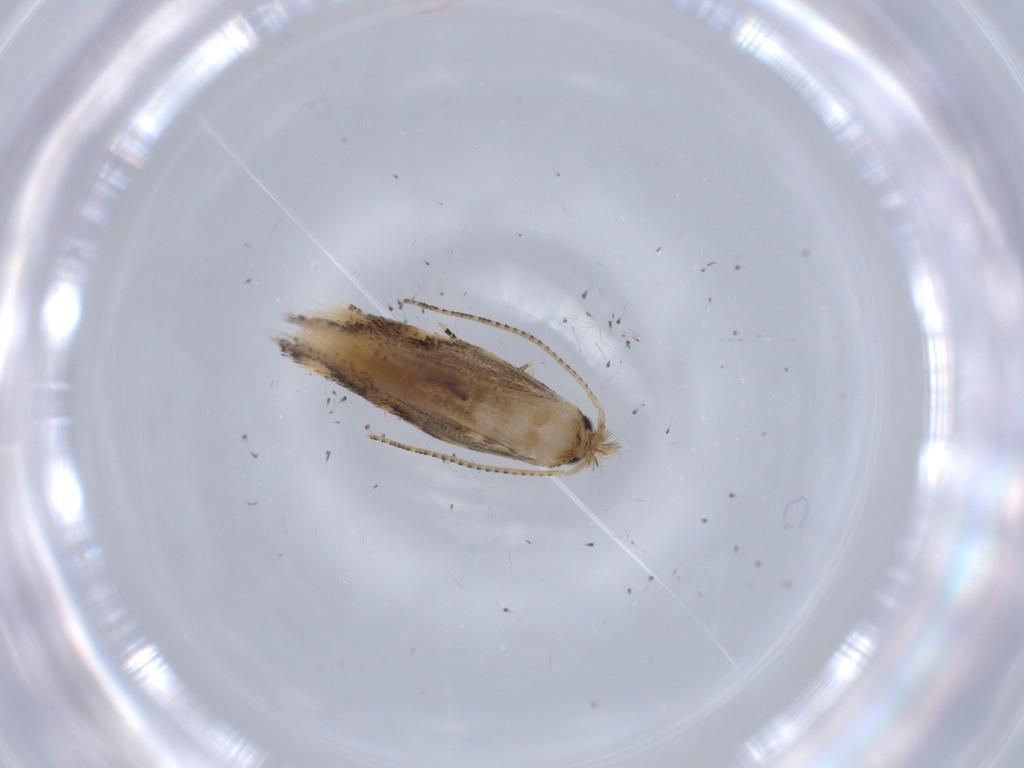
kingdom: Animalia
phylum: Arthropoda
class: Insecta
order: Lepidoptera
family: Bucculatricidae
